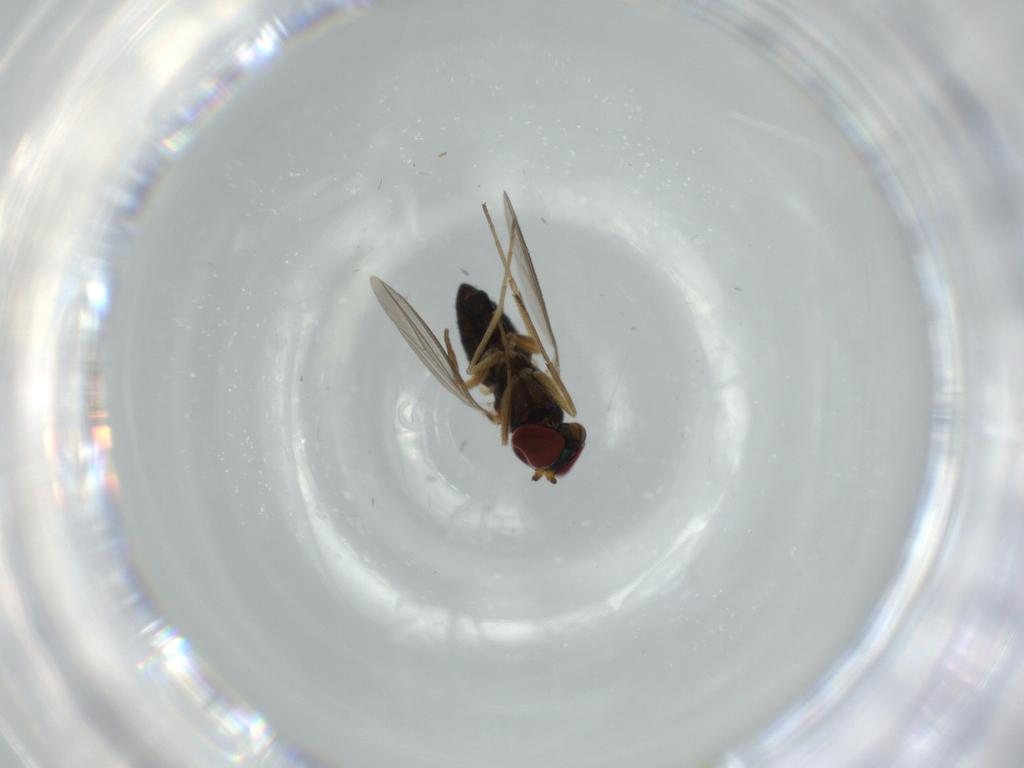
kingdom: Animalia
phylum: Arthropoda
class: Insecta
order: Diptera
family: Dolichopodidae
